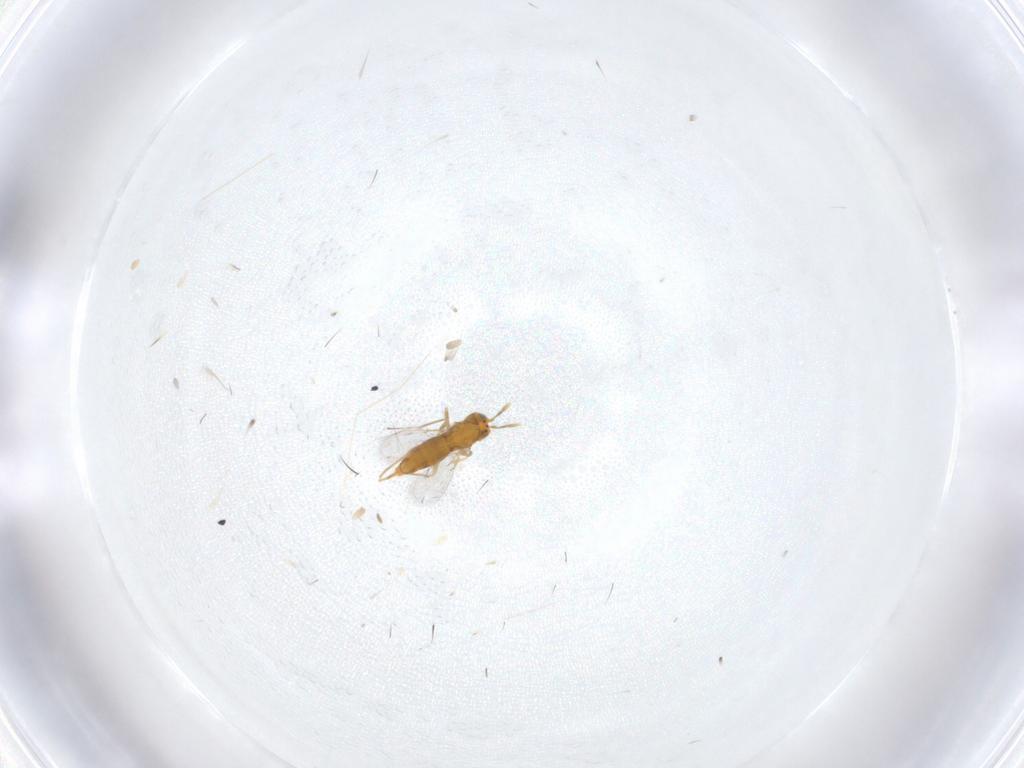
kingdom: Animalia
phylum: Arthropoda
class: Insecta
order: Hymenoptera
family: Aphelinidae
